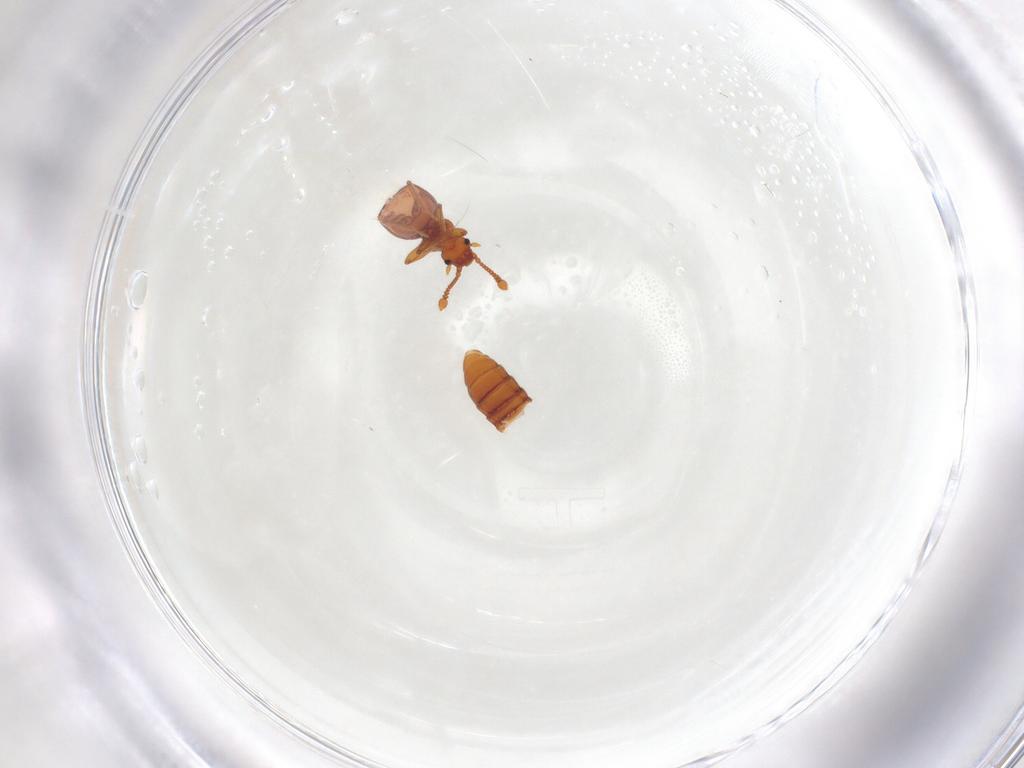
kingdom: Animalia
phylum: Arthropoda
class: Insecta
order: Coleoptera
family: Staphylinidae
